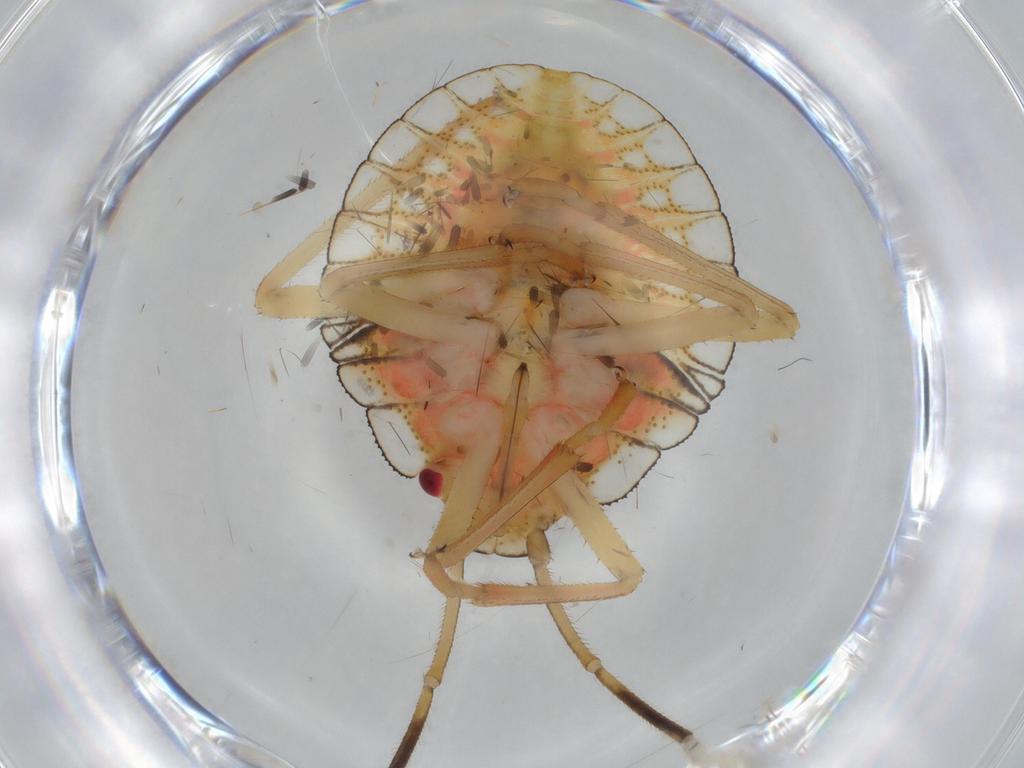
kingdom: Animalia
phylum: Arthropoda
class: Insecta
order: Hemiptera
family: Pentatomidae
